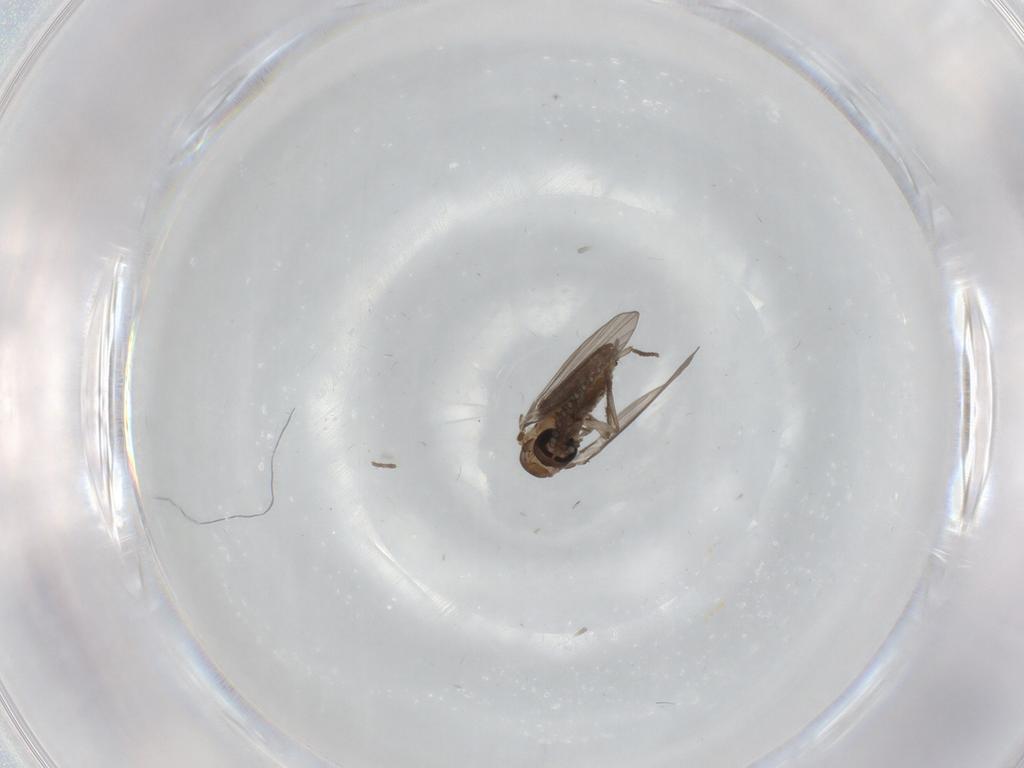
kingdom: Animalia
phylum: Arthropoda
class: Insecta
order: Diptera
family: Psychodidae
